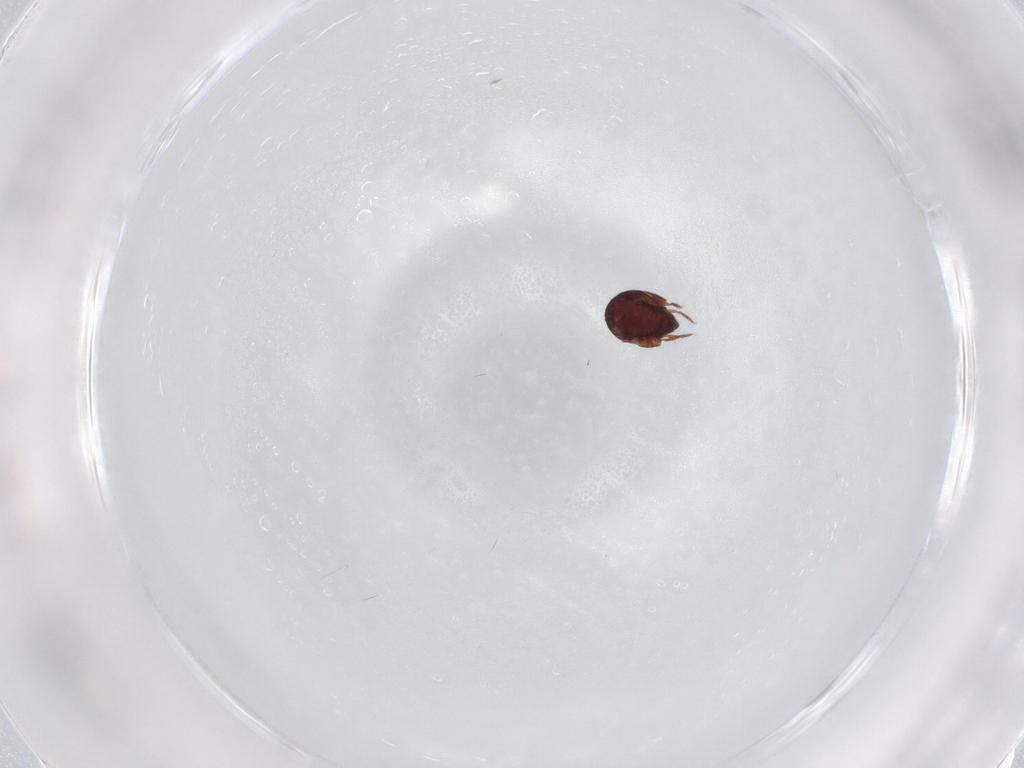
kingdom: Animalia
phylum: Arthropoda
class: Arachnida
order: Sarcoptiformes
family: Humerobatidae
